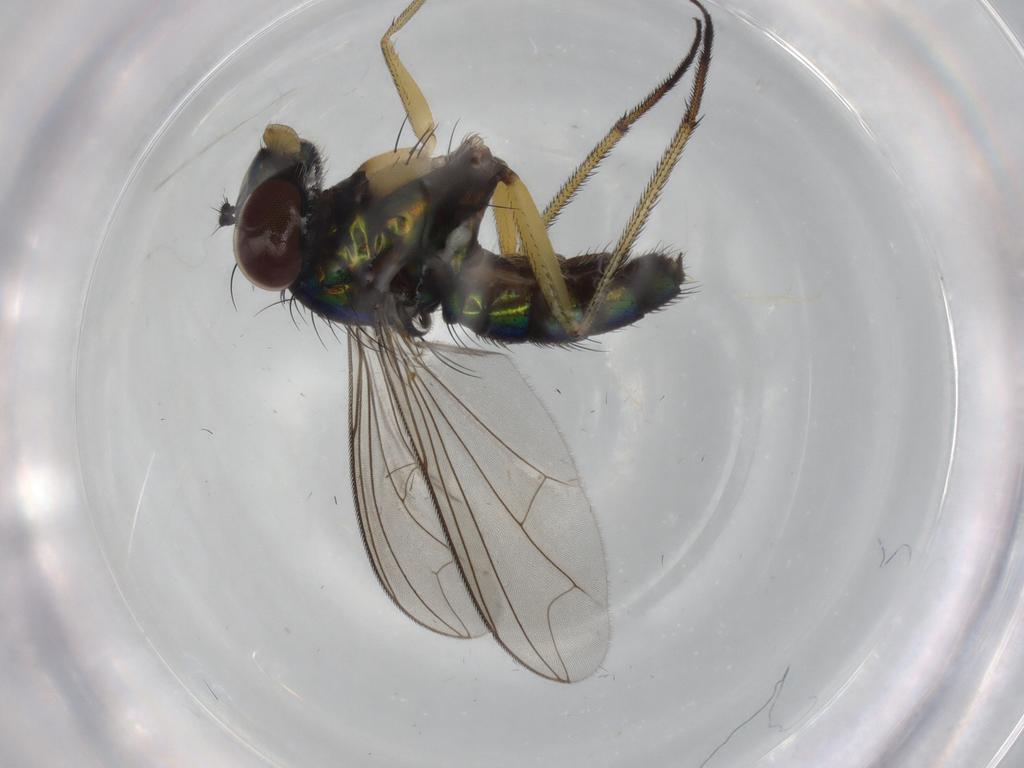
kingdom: Animalia
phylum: Arthropoda
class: Insecta
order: Diptera
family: Dolichopodidae
